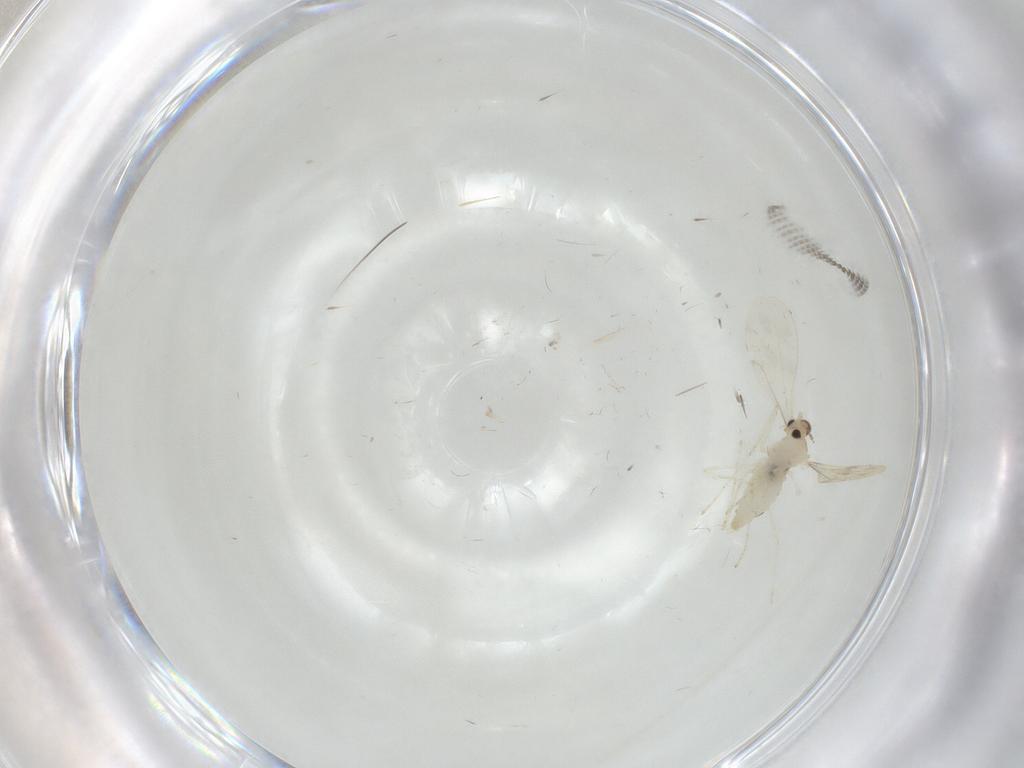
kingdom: Animalia
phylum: Arthropoda
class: Insecta
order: Diptera
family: Cecidomyiidae
